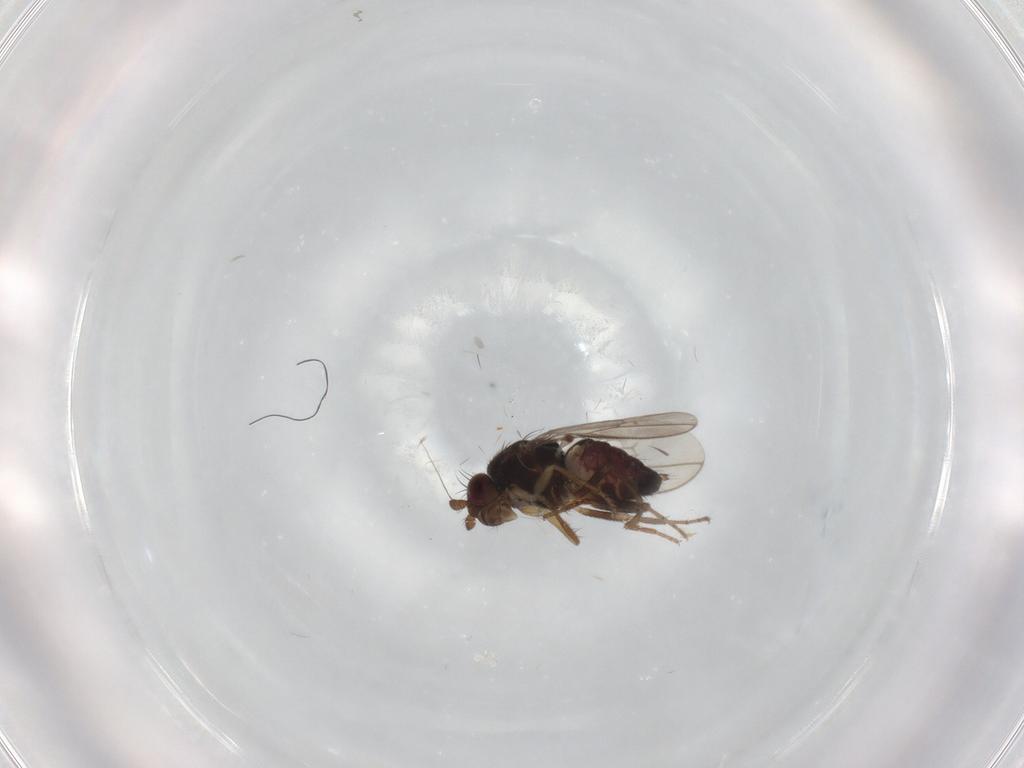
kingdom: Animalia
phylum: Arthropoda
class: Insecta
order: Diptera
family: Sphaeroceridae
